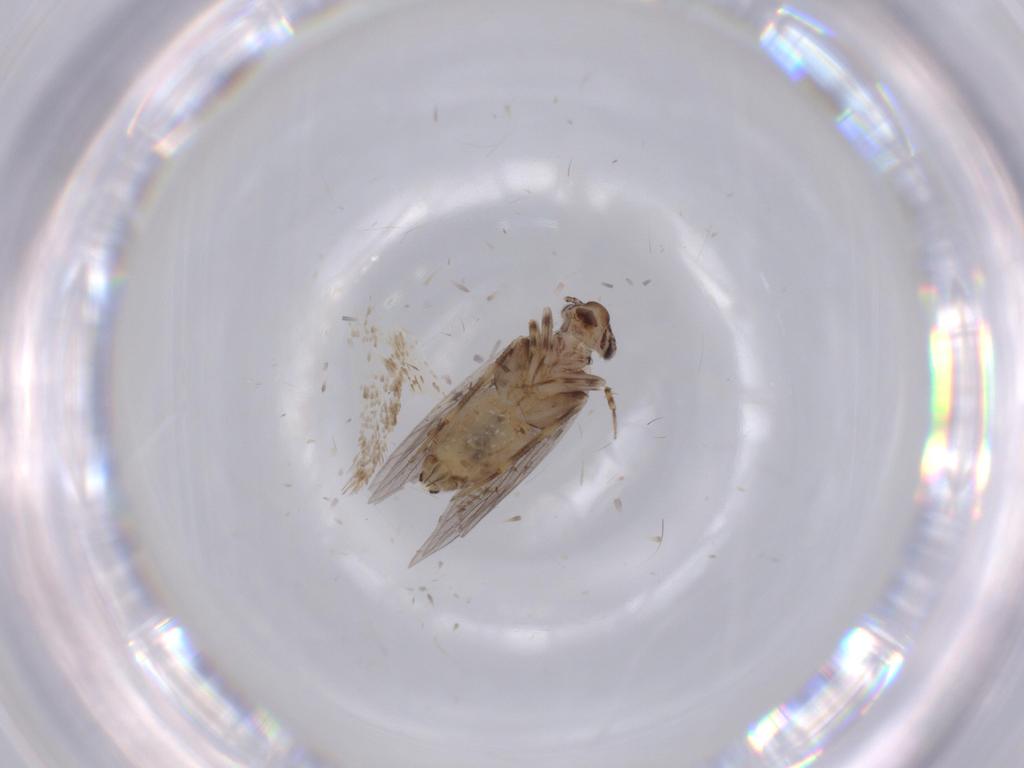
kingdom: Animalia
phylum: Arthropoda
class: Insecta
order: Psocodea
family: Lepidopsocidae
